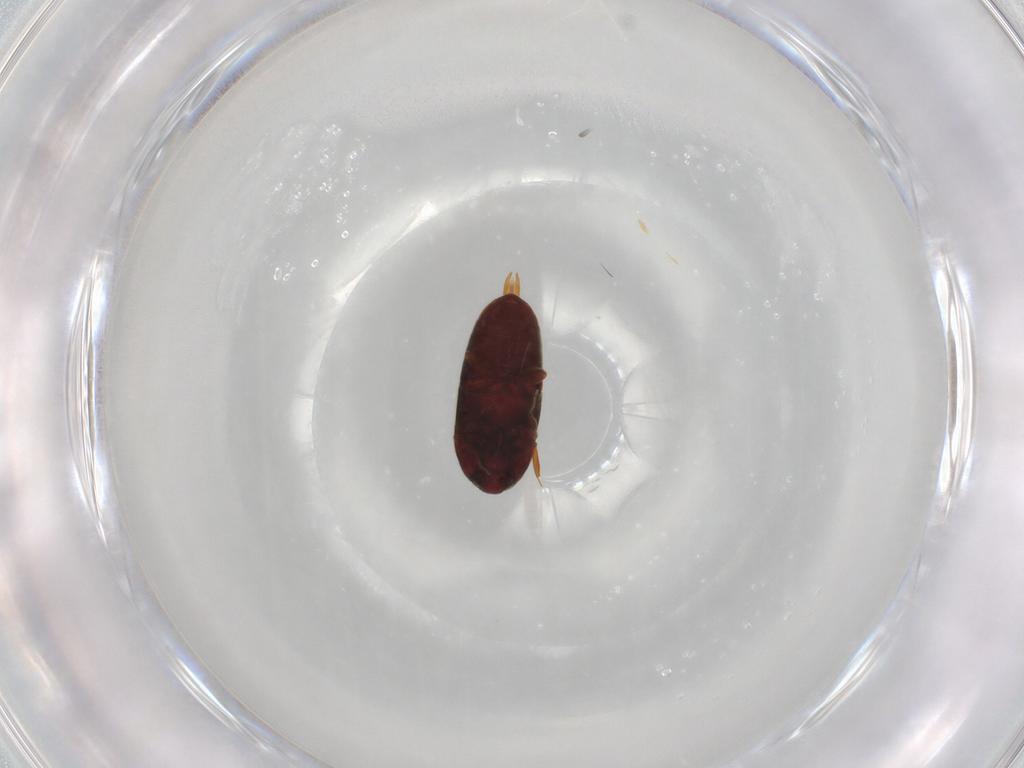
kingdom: Animalia
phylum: Arthropoda
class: Insecta
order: Coleoptera
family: Throscidae
